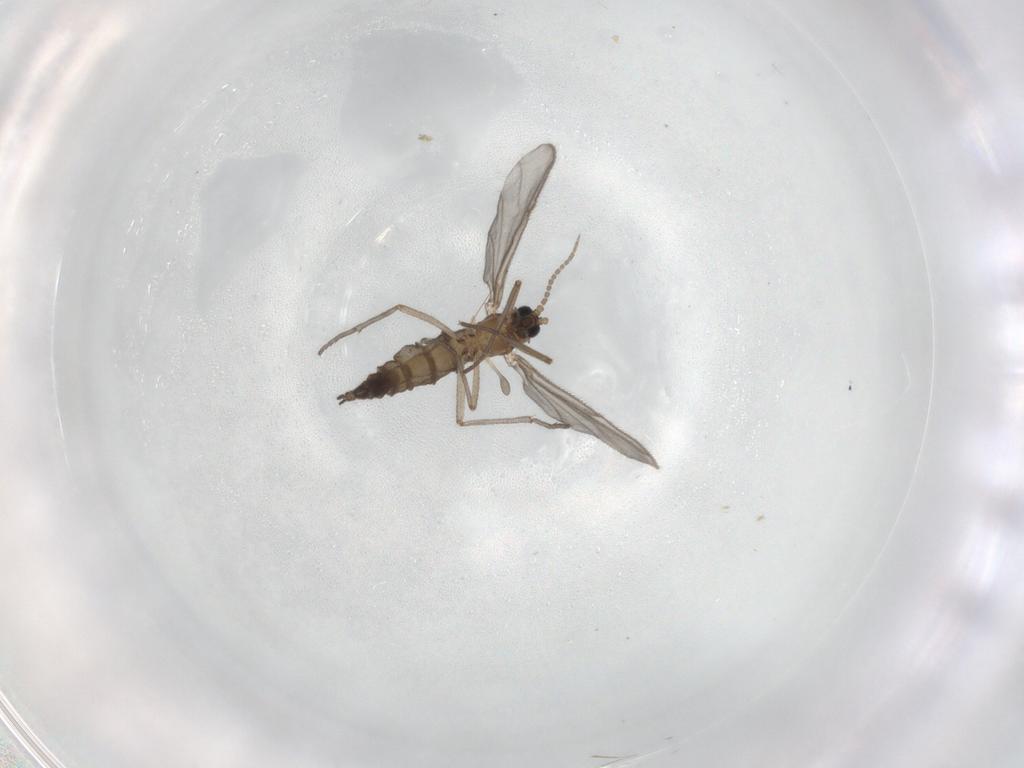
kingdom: Animalia
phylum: Arthropoda
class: Insecta
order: Diptera
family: Sciaridae
